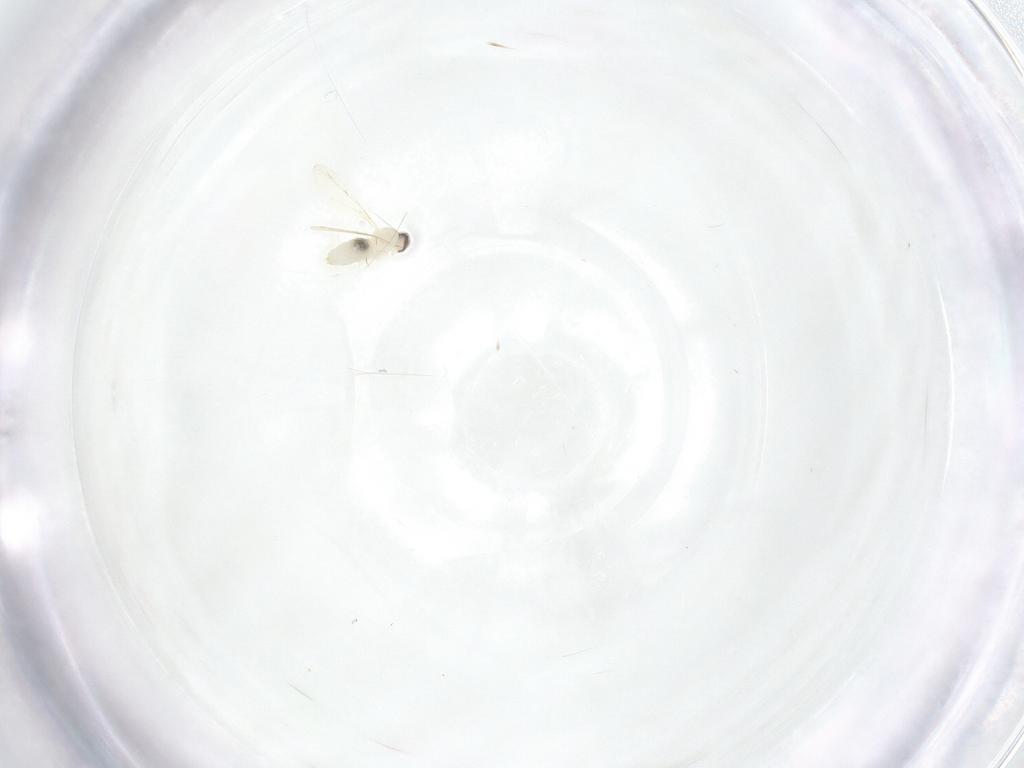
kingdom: Animalia
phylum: Arthropoda
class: Insecta
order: Diptera
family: Cecidomyiidae
